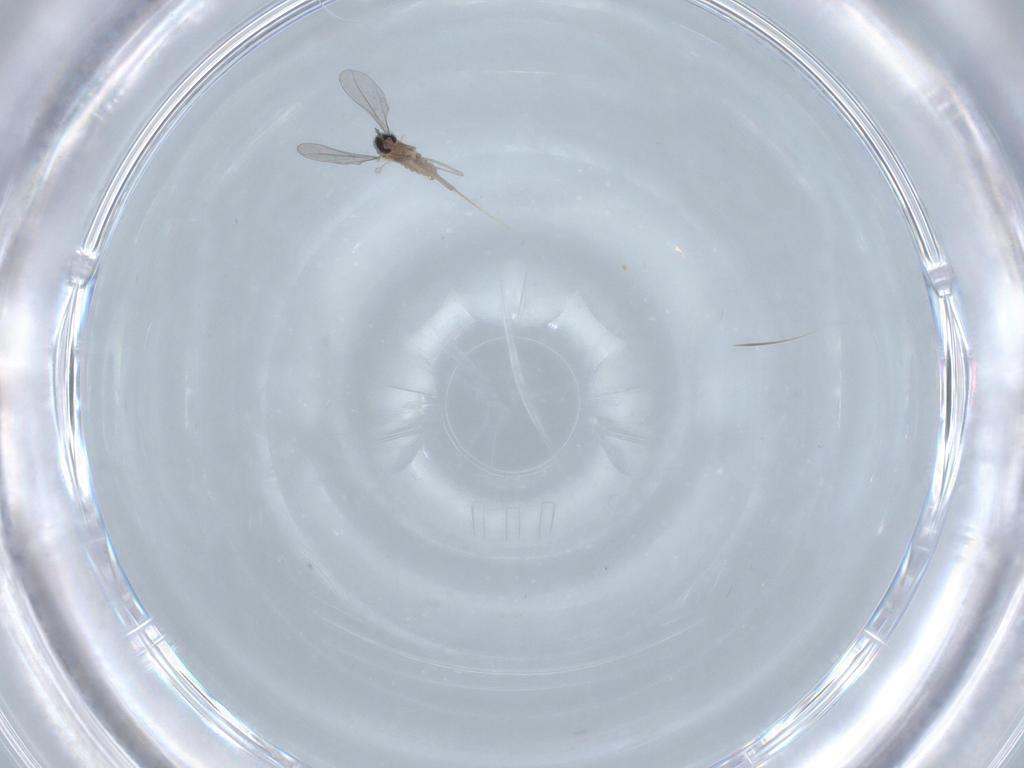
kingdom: Animalia
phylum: Arthropoda
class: Insecta
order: Diptera
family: Cecidomyiidae
